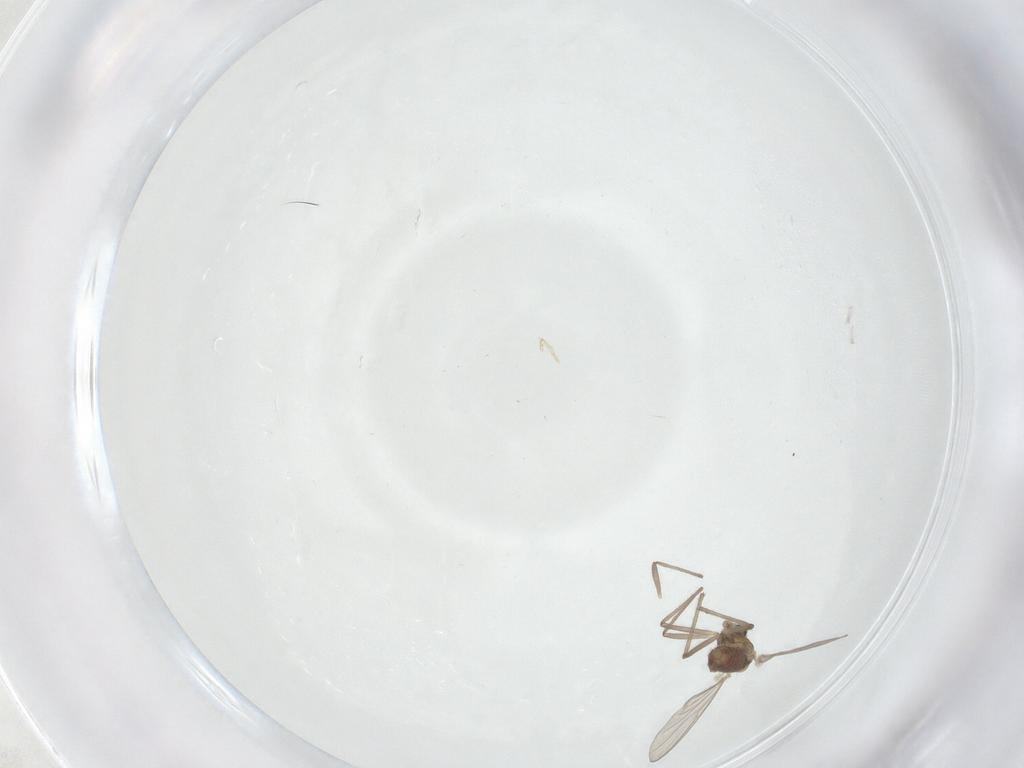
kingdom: Animalia
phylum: Arthropoda
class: Insecta
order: Diptera
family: Chironomidae
